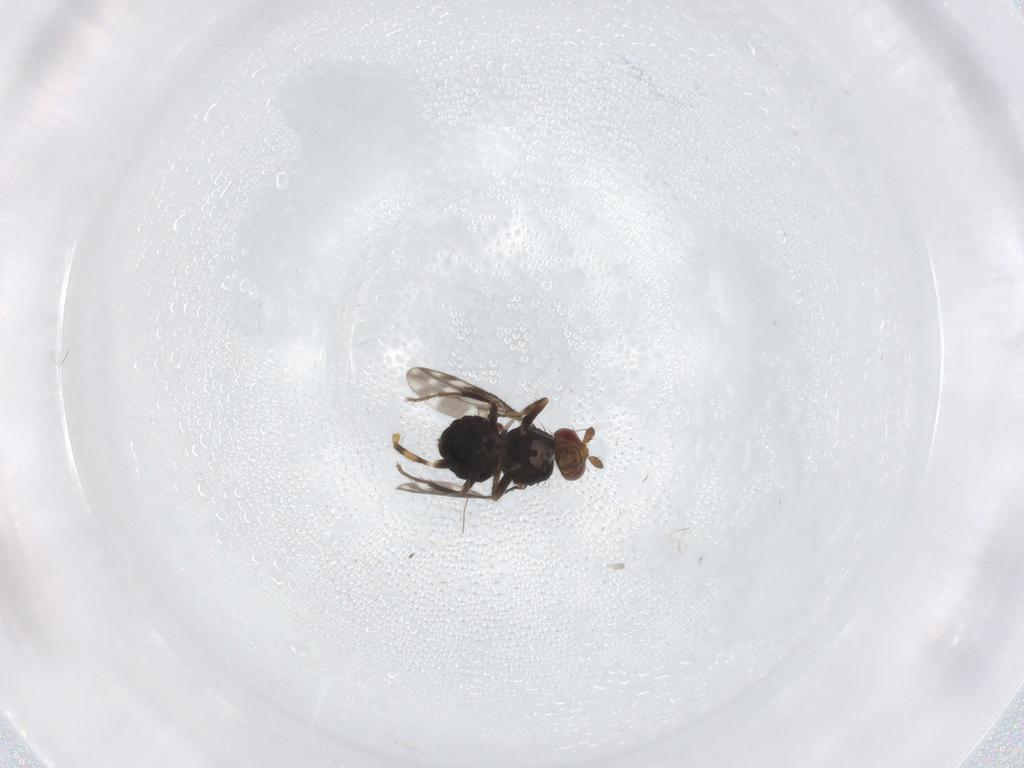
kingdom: Animalia
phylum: Arthropoda
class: Insecta
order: Diptera
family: Sphaeroceridae
